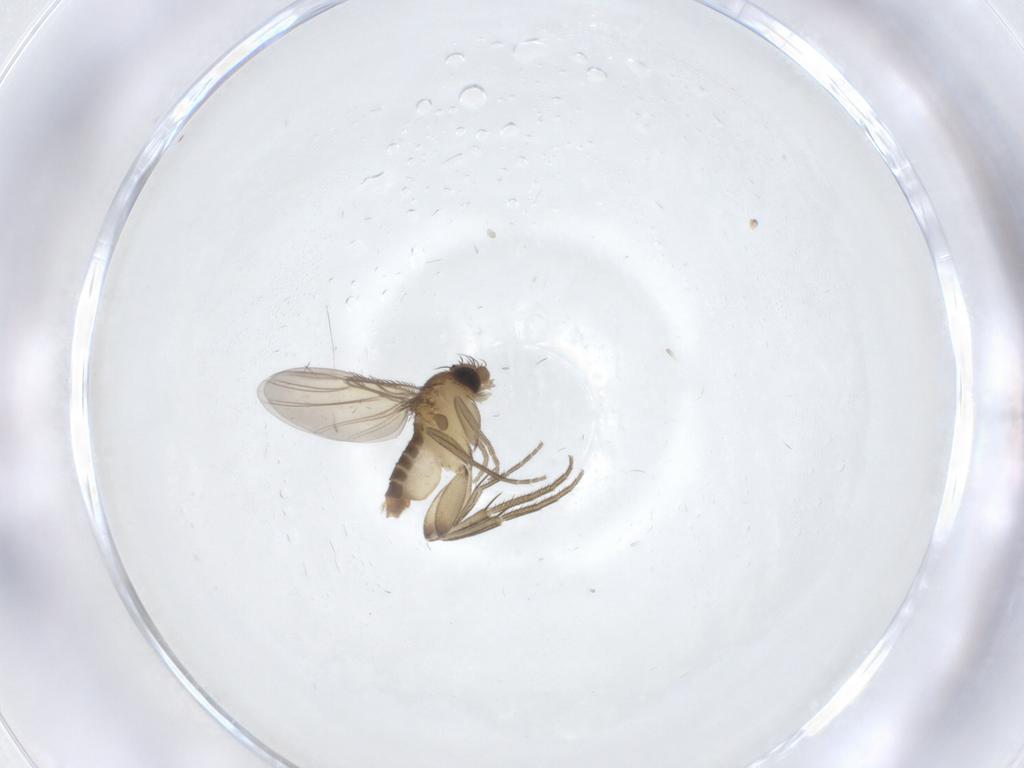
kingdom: Animalia
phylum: Arthropoda
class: Insecta
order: Diptera
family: Phoridae
